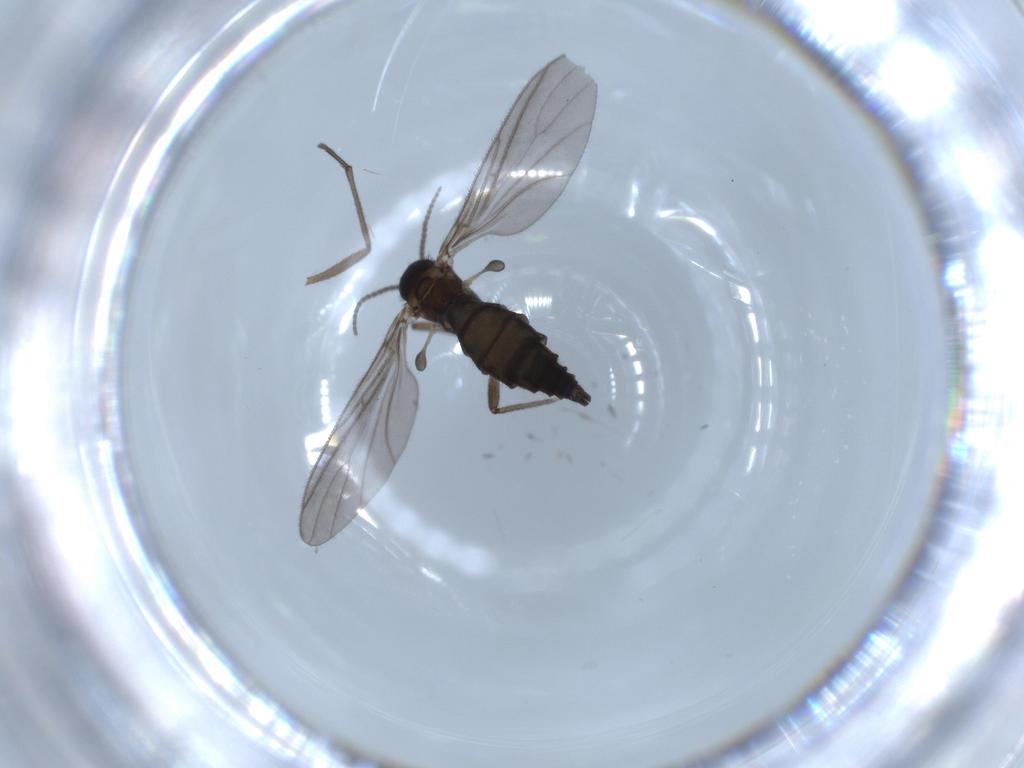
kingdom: Animalia
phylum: Arthropoda
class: Insecta
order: Diptera
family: Sciaridae
